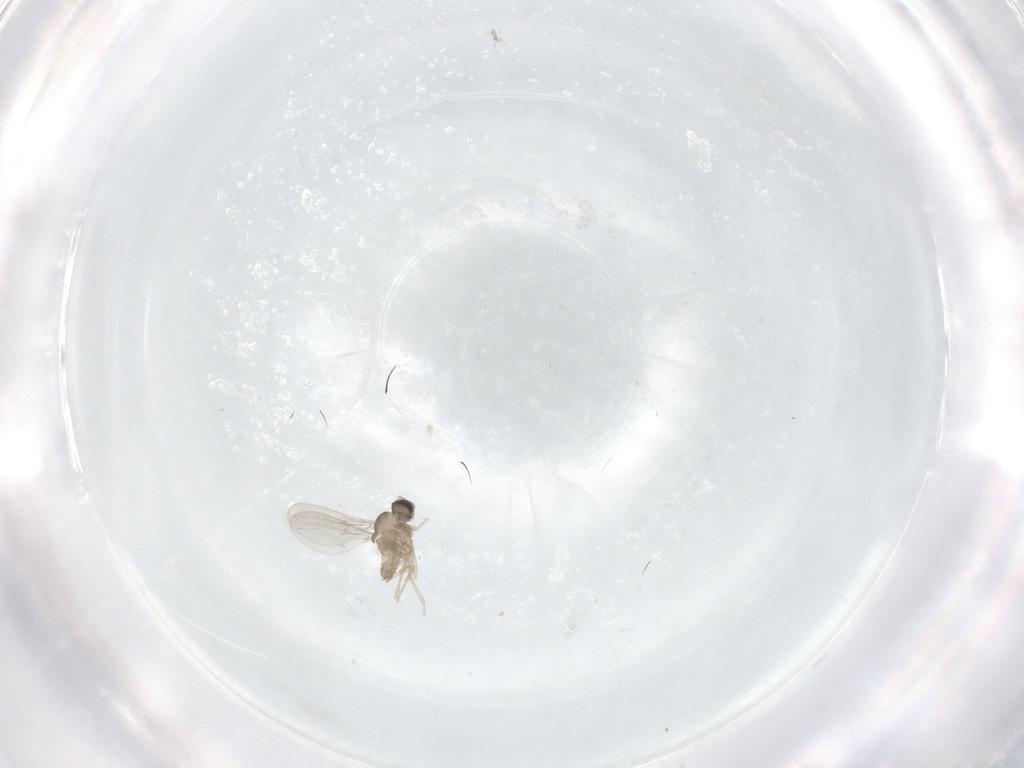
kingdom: Animalia
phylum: Arthropoda
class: Insecta
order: Diptera
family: Cecidomyiidae
